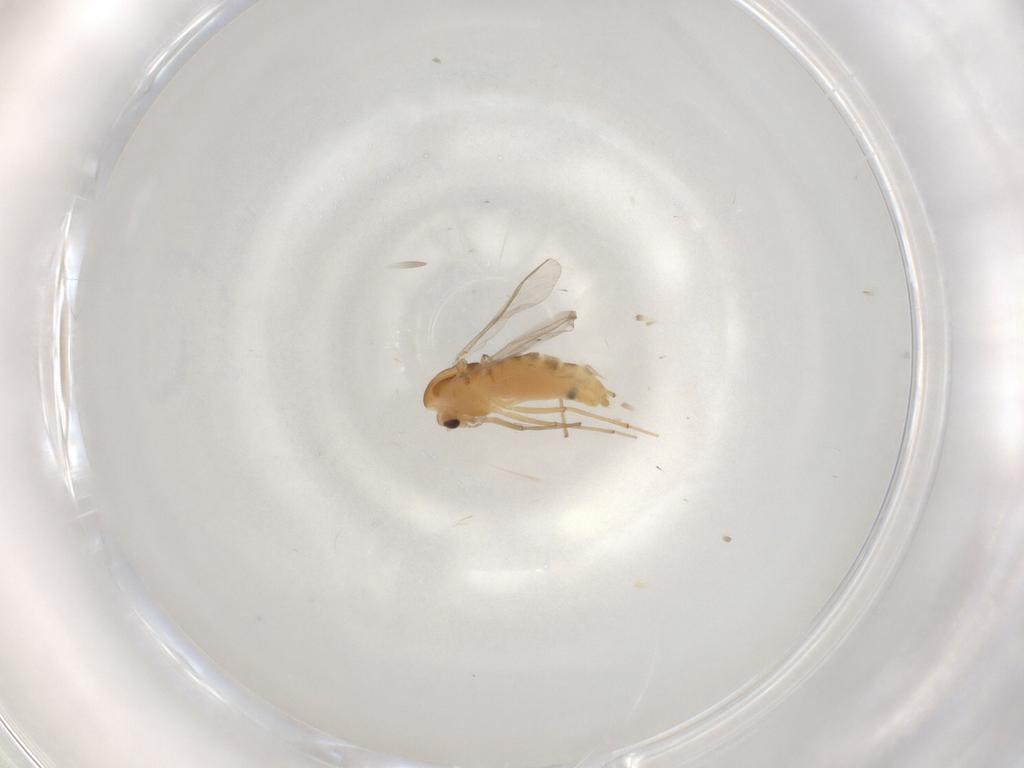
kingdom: Animalia
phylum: Arthropoda
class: Insecta
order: Diptera
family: Chironomidae
